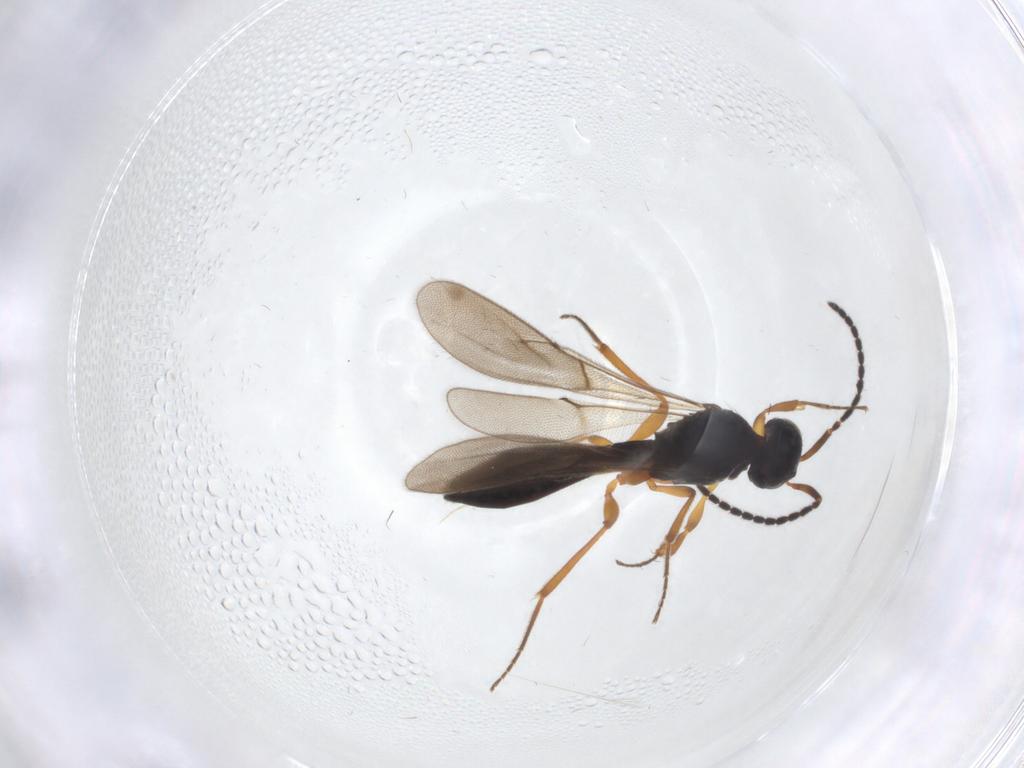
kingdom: Animalia
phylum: Arthropoda
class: Insecta
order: Hymenoptera
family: Scelionidae
